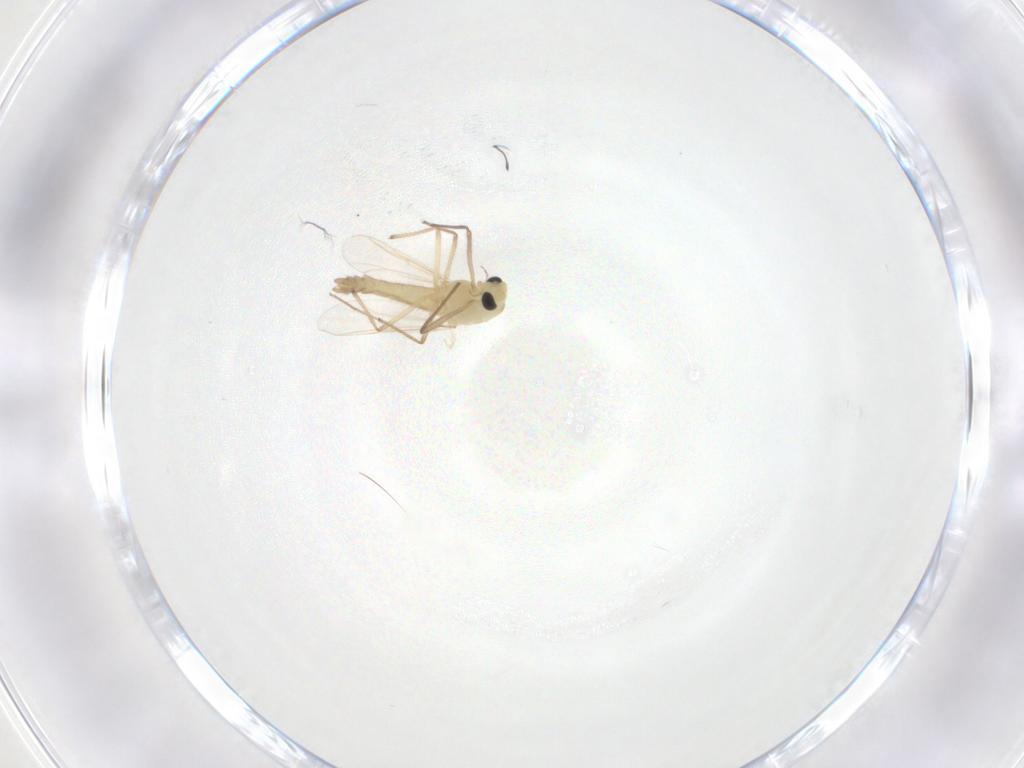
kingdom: Animalia
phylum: Arthropoda
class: Insecta
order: Diptera
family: Chironomidae
